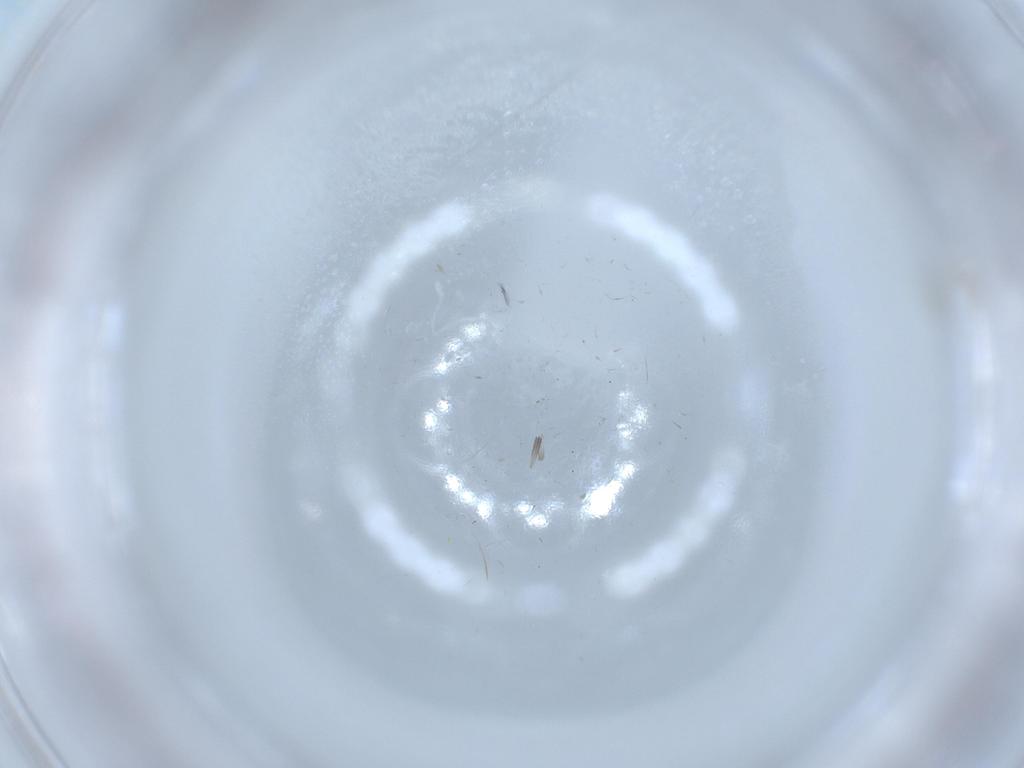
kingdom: Animalia
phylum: Arthropoda
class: Insecta
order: Diptera
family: Cecidomyiidae
